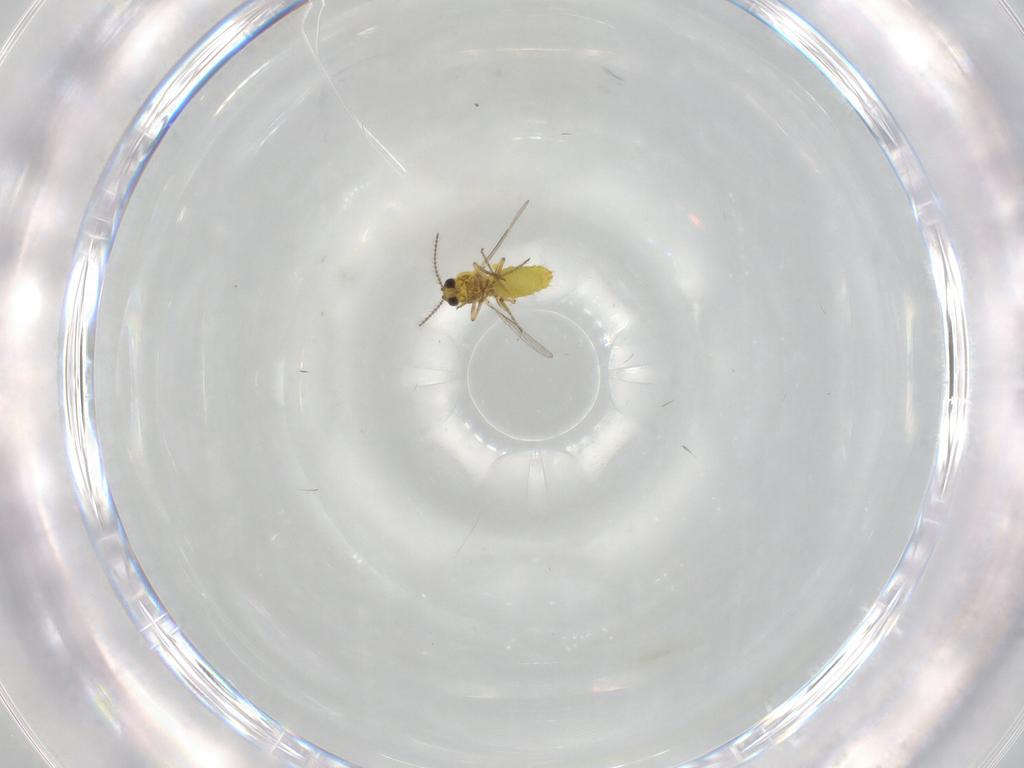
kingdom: Animalia
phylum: Arthropoda
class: Insecta
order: Diptera
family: Cecidomyiidae
